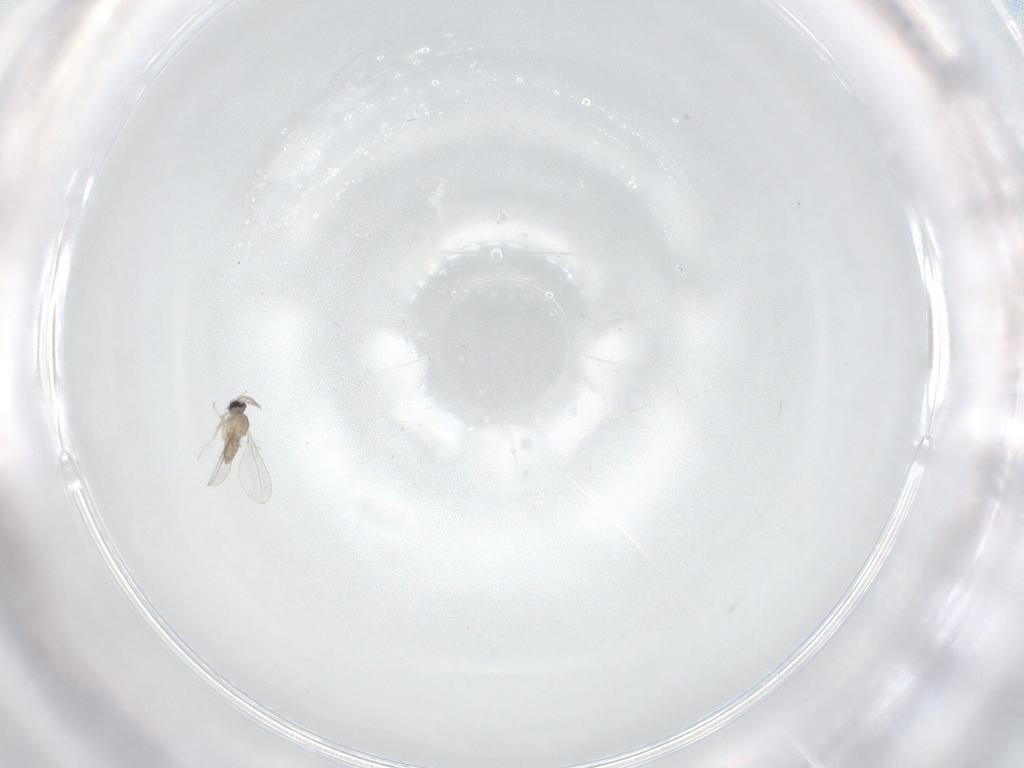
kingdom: Animalia
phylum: Arthropoda
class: Insecta
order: Diptera
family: Cecidomyiidae
